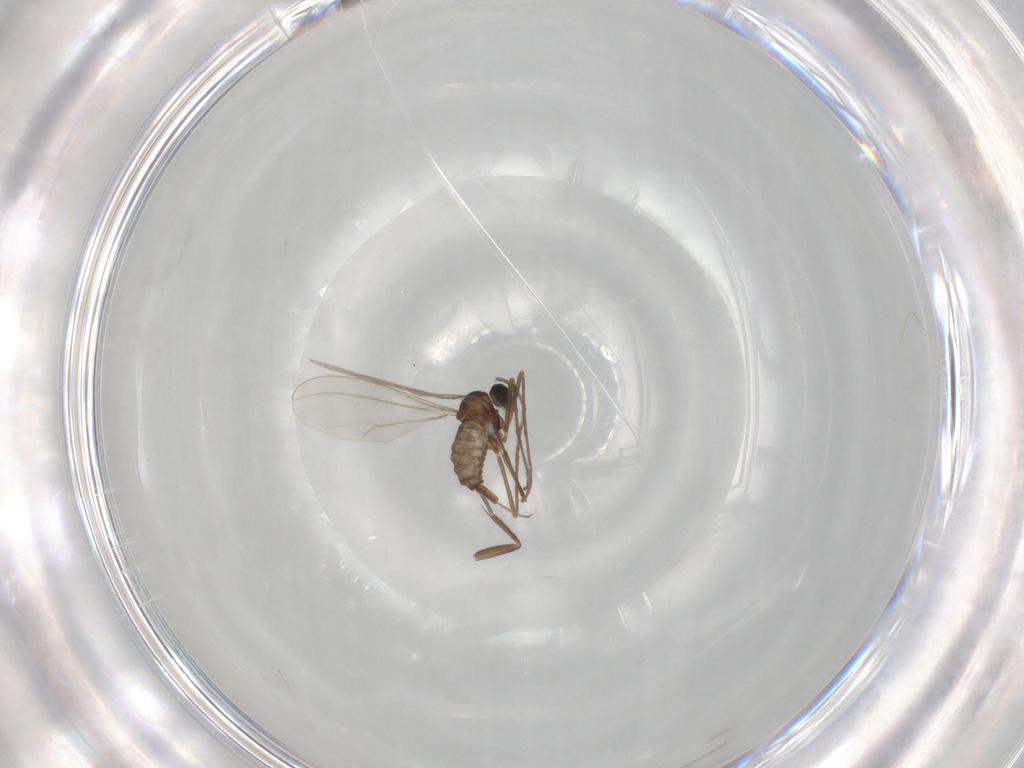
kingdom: Animalia
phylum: Arthropoda
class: Insecta
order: Diptera
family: Cecidomyiidae
